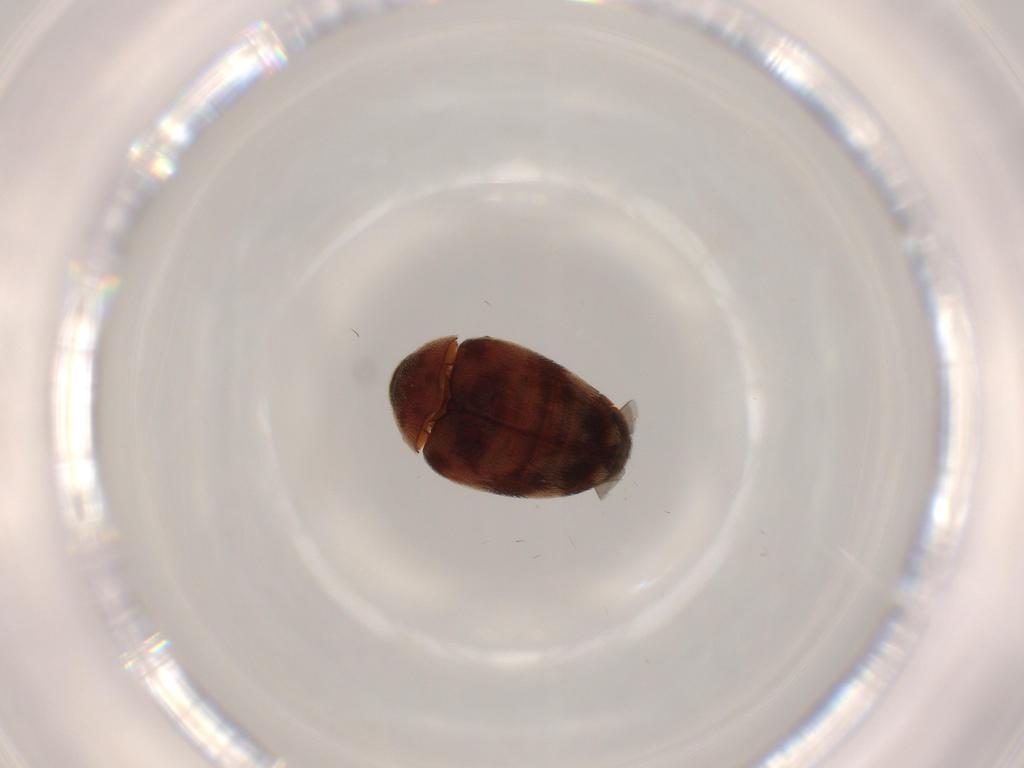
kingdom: Animalia
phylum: Arthropoda
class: Insecta
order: Coleoptera
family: Dermestidae
